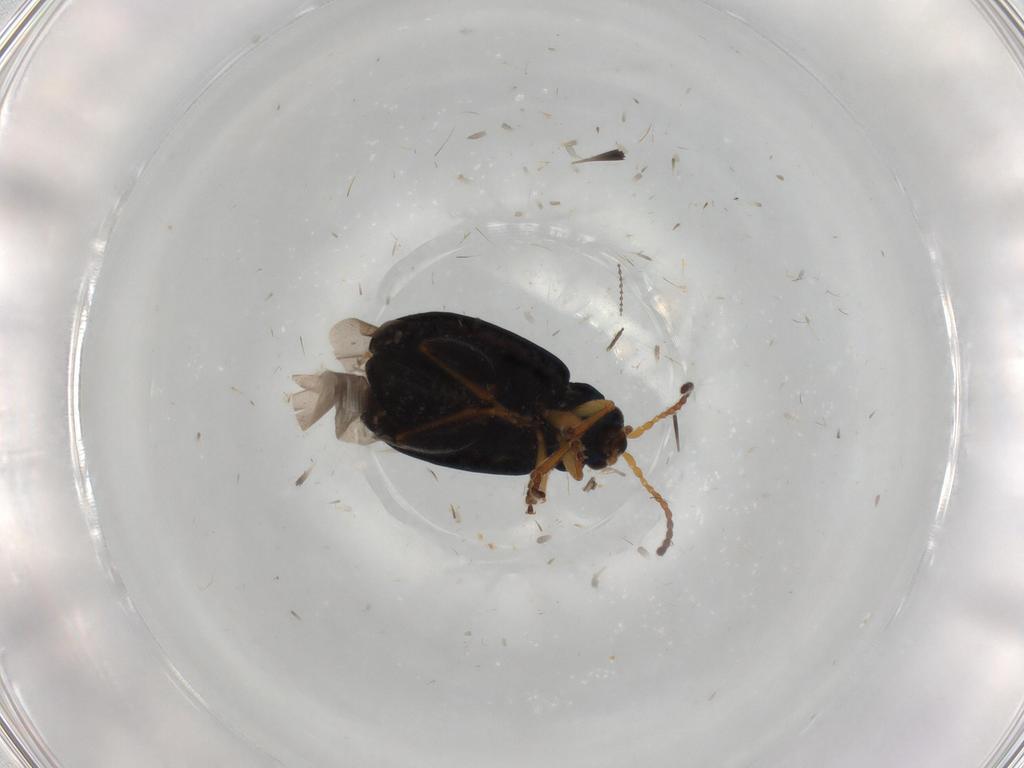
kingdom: Animalia
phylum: Arthropoda
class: Insecta
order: Coleoptera
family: Chrysomelidae
